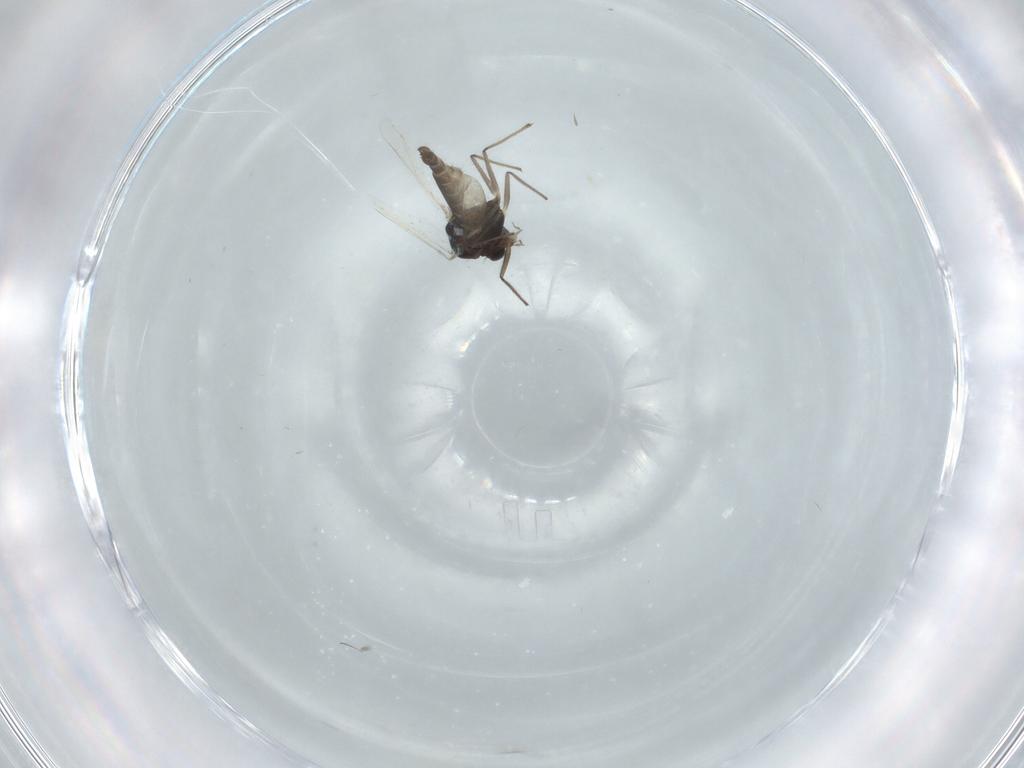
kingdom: Animalia
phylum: Arthropoda
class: Insecta
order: Diptera
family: Chironomidae
